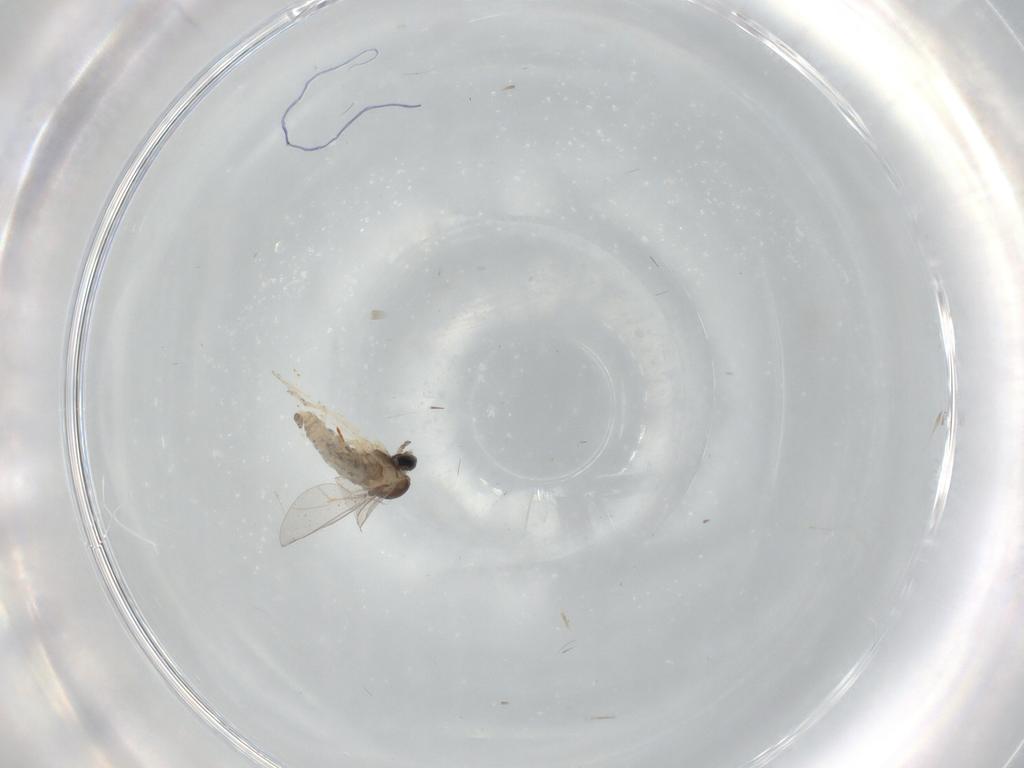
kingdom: Animalia
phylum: Arthropoda
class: Insecta
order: Diptera
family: Cecidomyiidae
